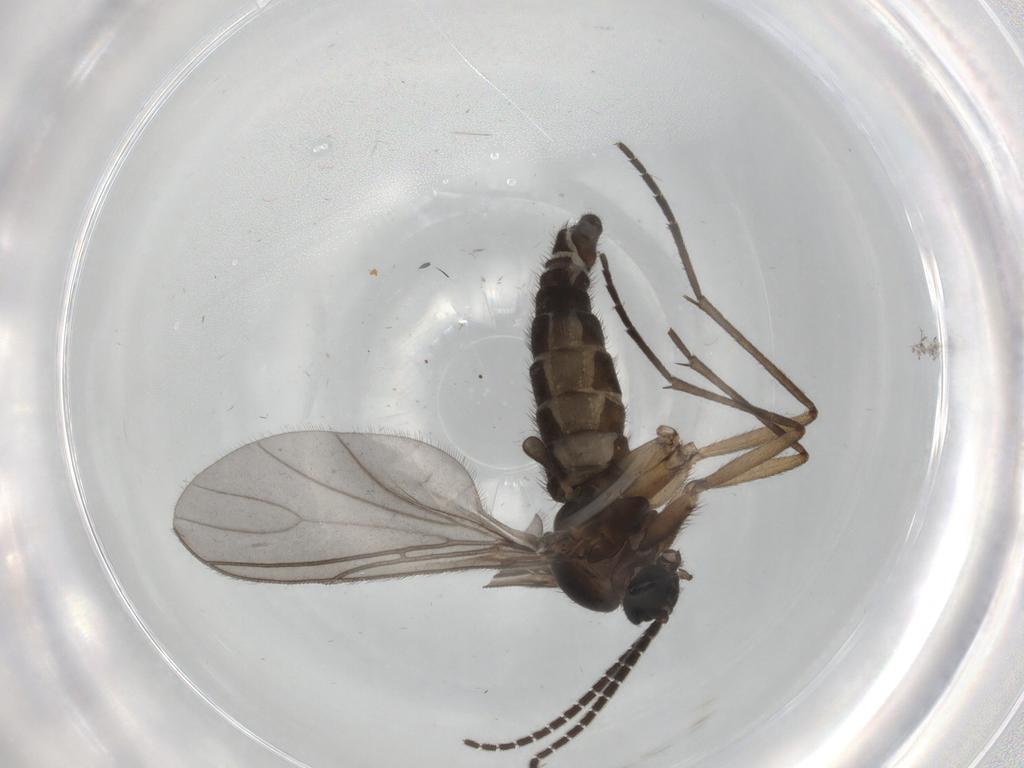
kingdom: Animalia
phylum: Arthropoda
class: Insecta
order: Diptera
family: Sciaridae
